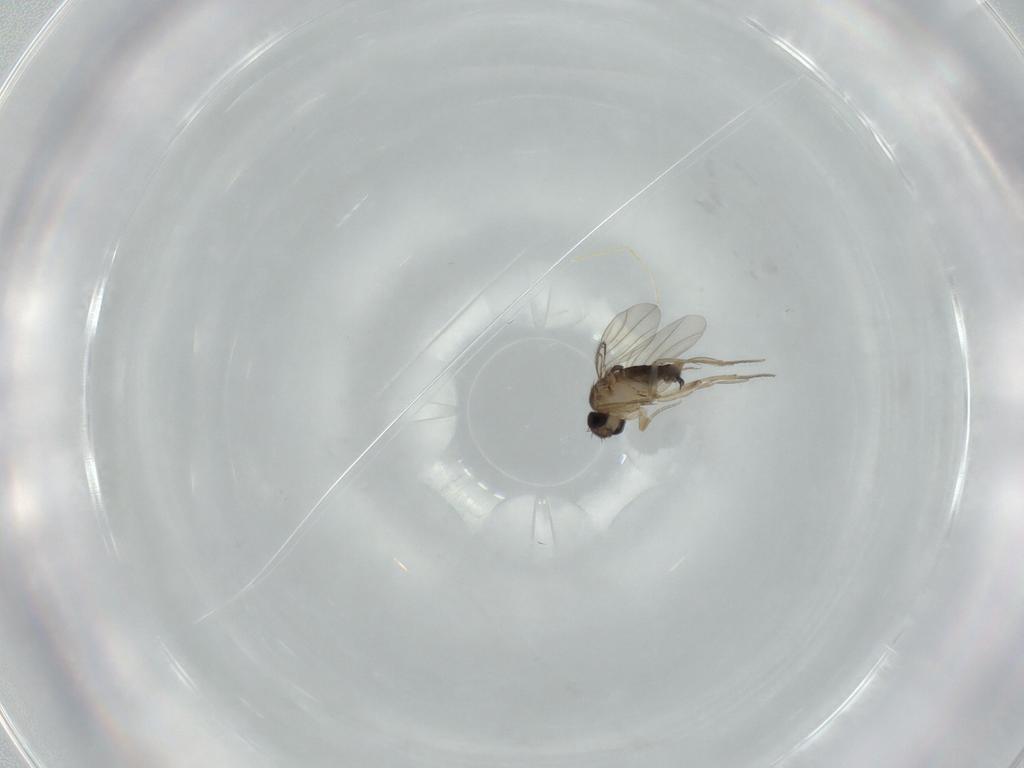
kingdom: Animalia
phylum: Arthropoda
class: Insecta
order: Diptera
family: Phoridae
